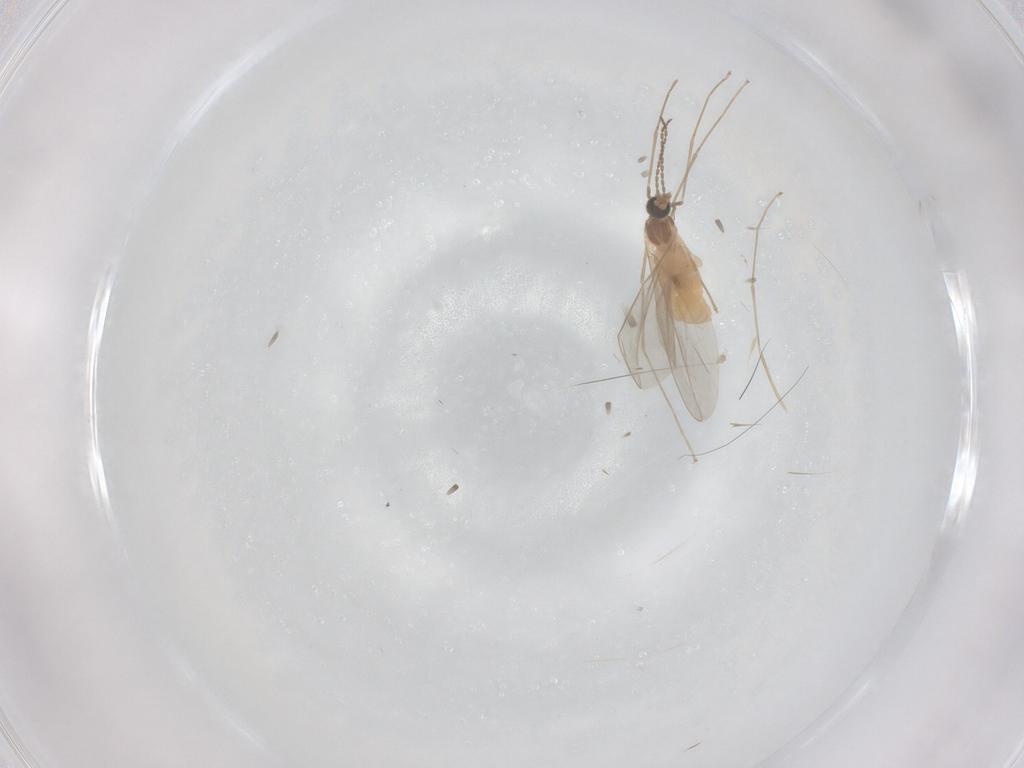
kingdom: Animalia
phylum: Arthropoda
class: Insecta
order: Diptera
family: Cecidomyiidae
